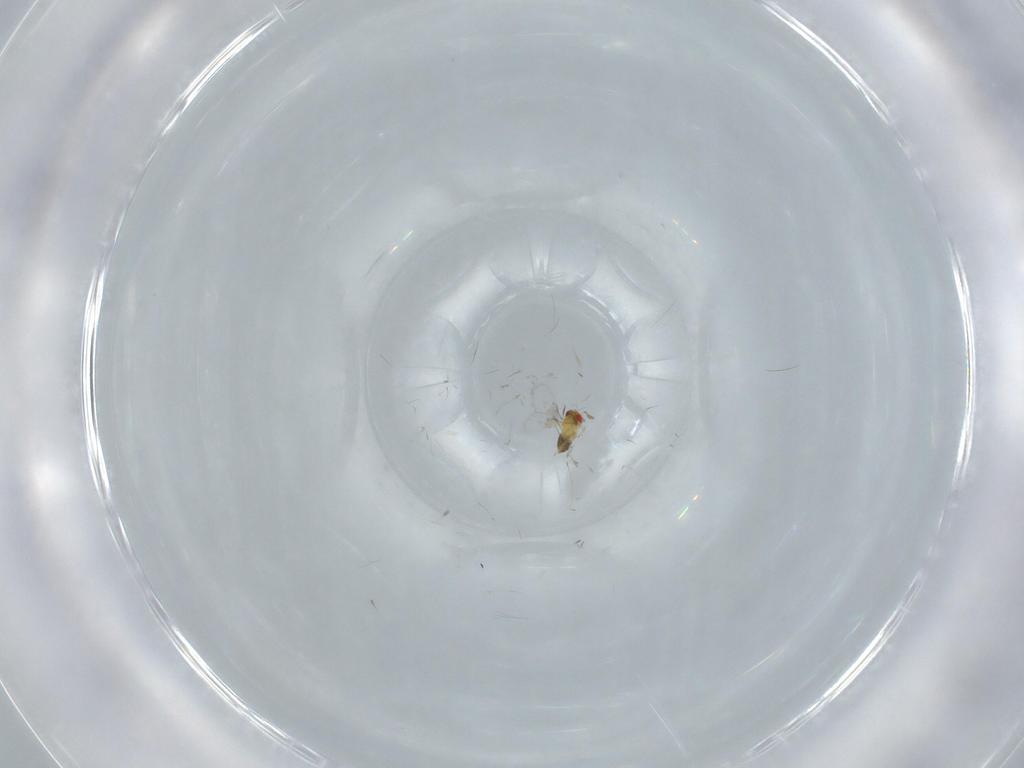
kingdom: Animalia
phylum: Arthropoda
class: Insecta
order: Hymenoptera
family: Trichogrammatidae
